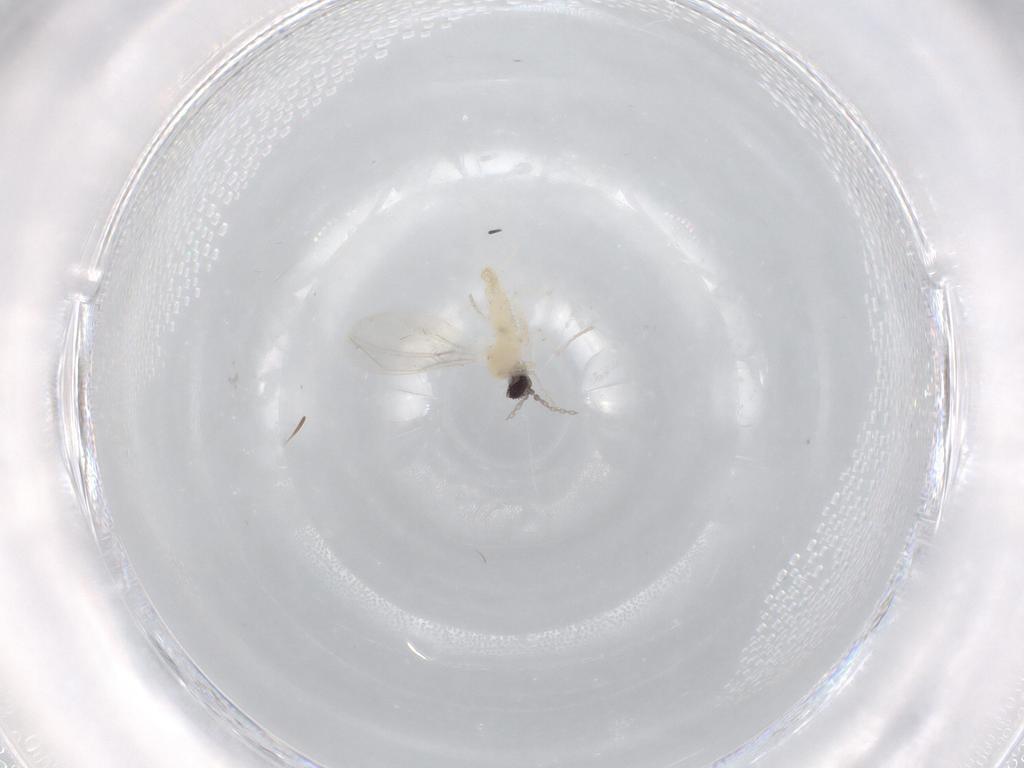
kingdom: Animalia
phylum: Arthropoda
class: Insecta
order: Diptera
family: Cecidomyiidae
